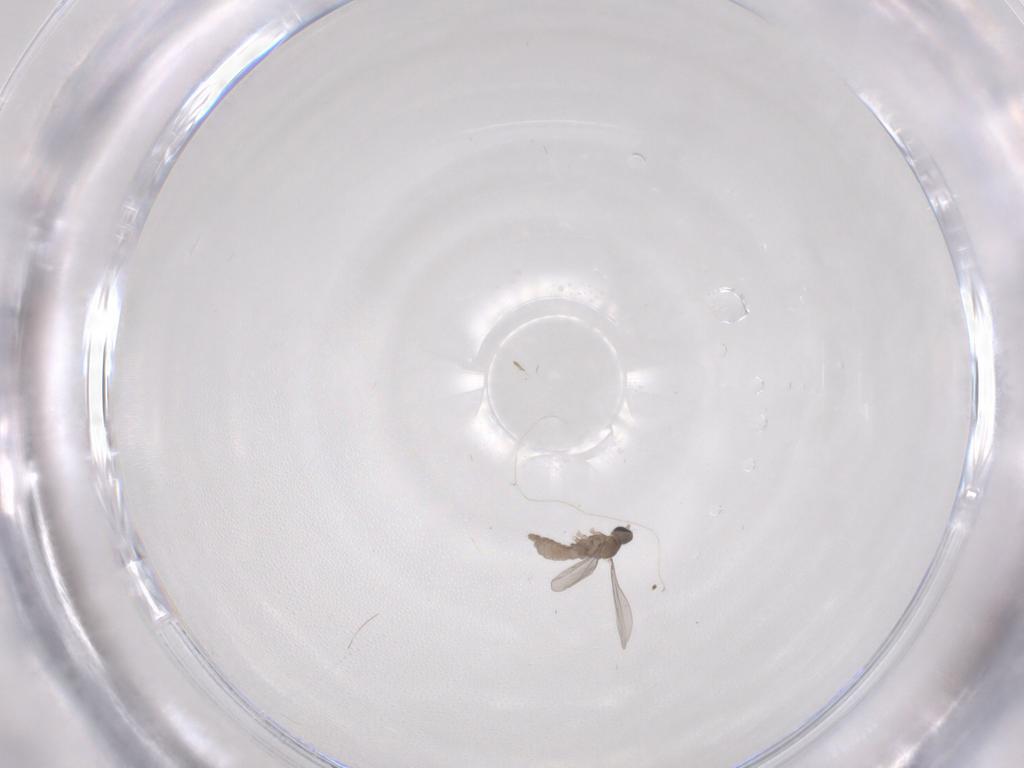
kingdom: Animalia
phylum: Arthropoda
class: Insecta
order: Diptera
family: Cecidomyiidae
